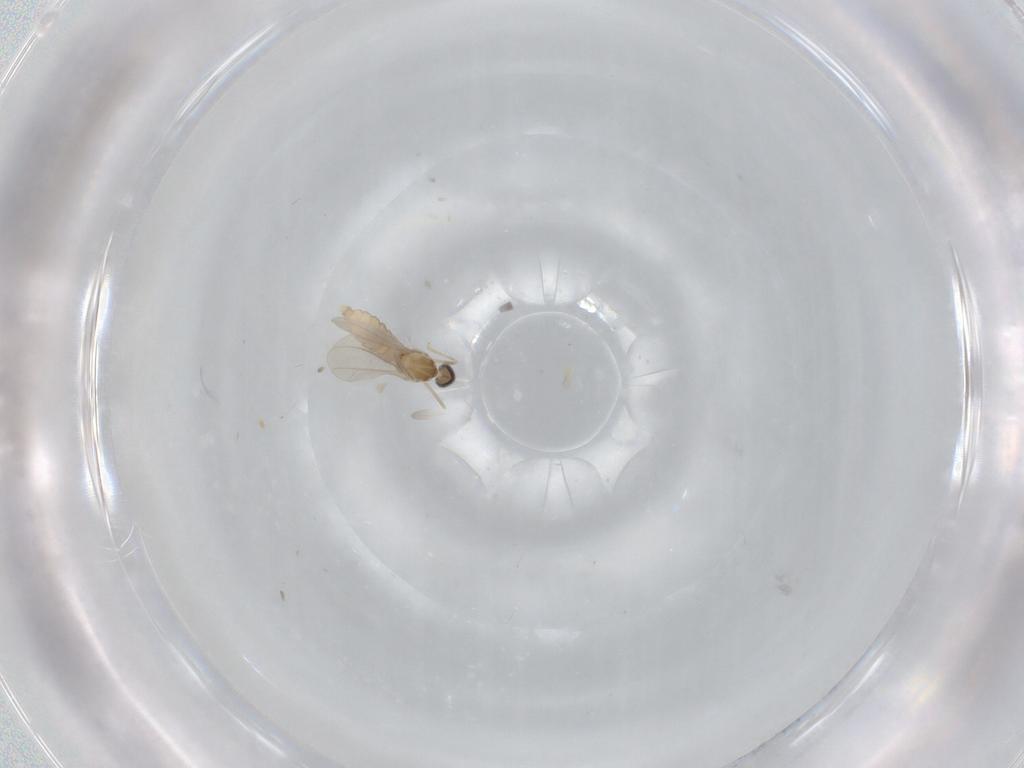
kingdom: Animalia
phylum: Arthropoda
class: Insecta
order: Diptera
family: Cecidomyiidae
